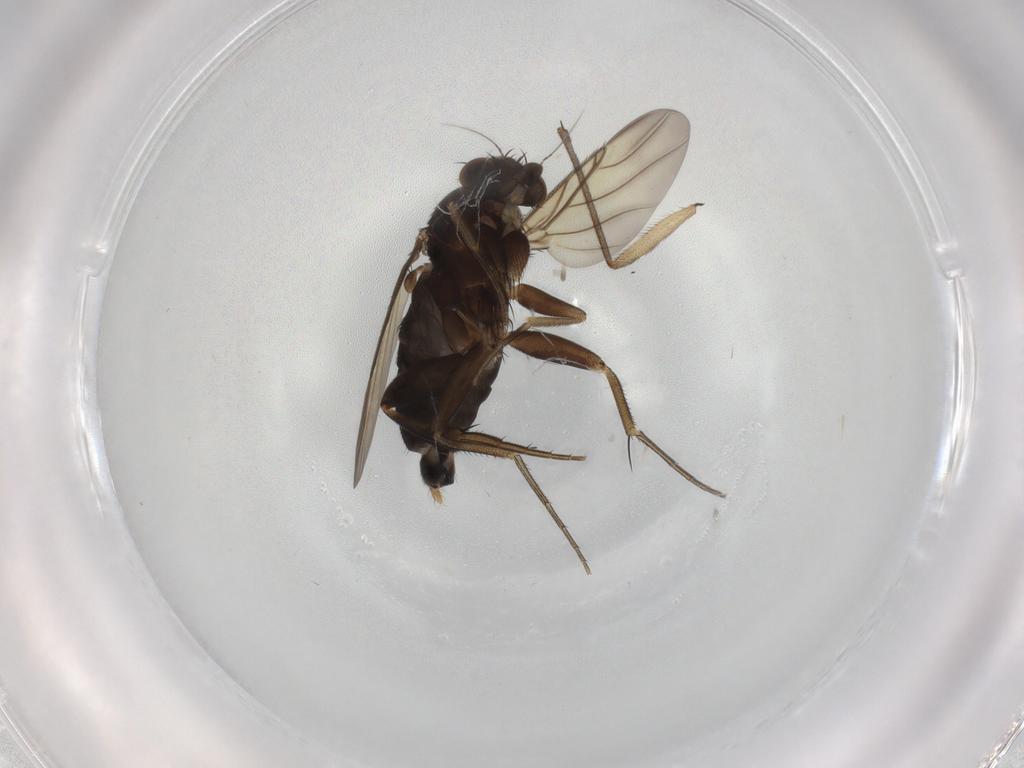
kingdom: Animalia
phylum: Arthropoda
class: Insecta
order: Diptera
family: Sciaridae
